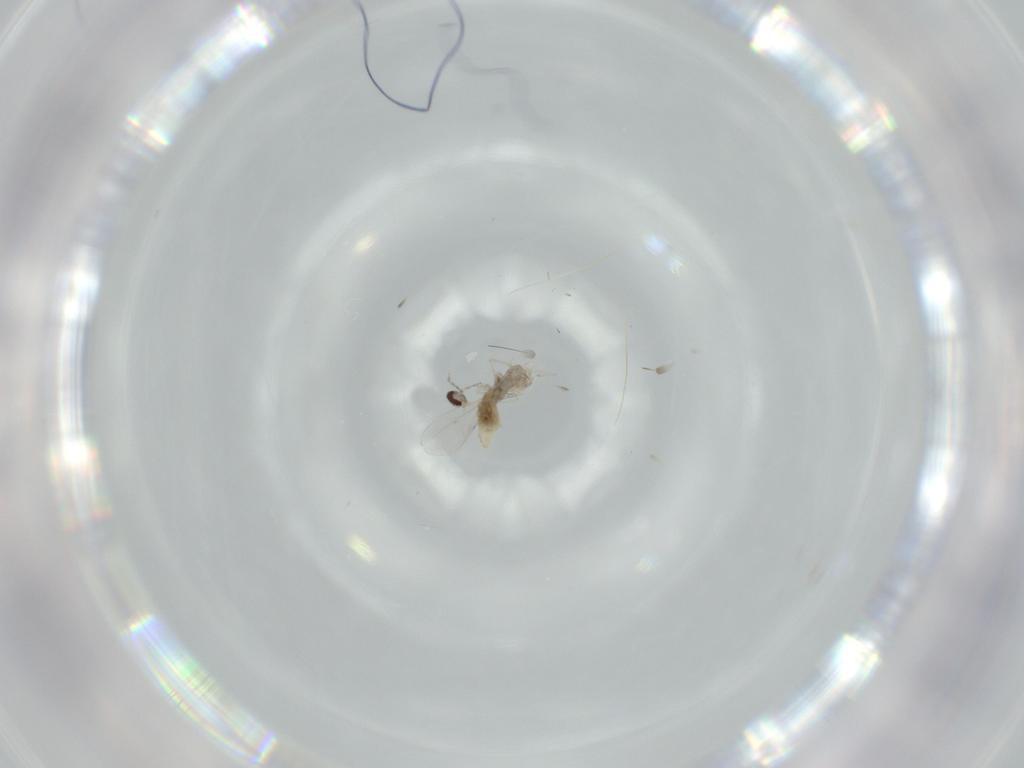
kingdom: Animalia
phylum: Arthropoda
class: Insecta
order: Diptera
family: Cecidomyiidae
